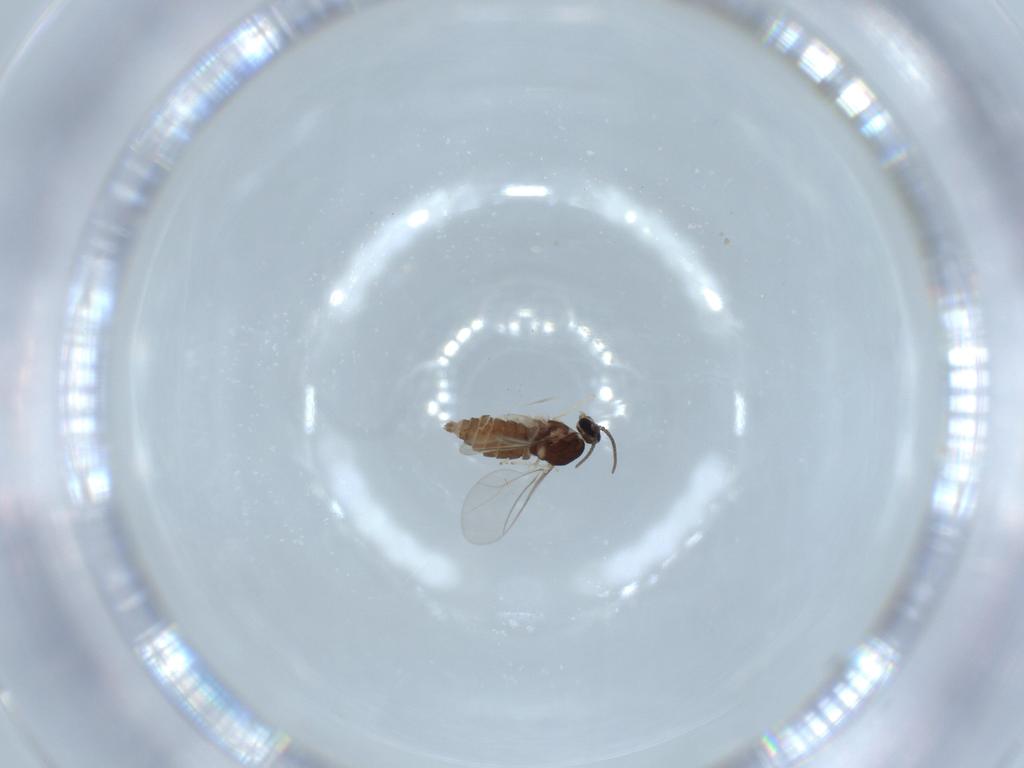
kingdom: Animalia
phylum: Arthropoda
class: Insecta
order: Diptera
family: Cecidomyiidae
